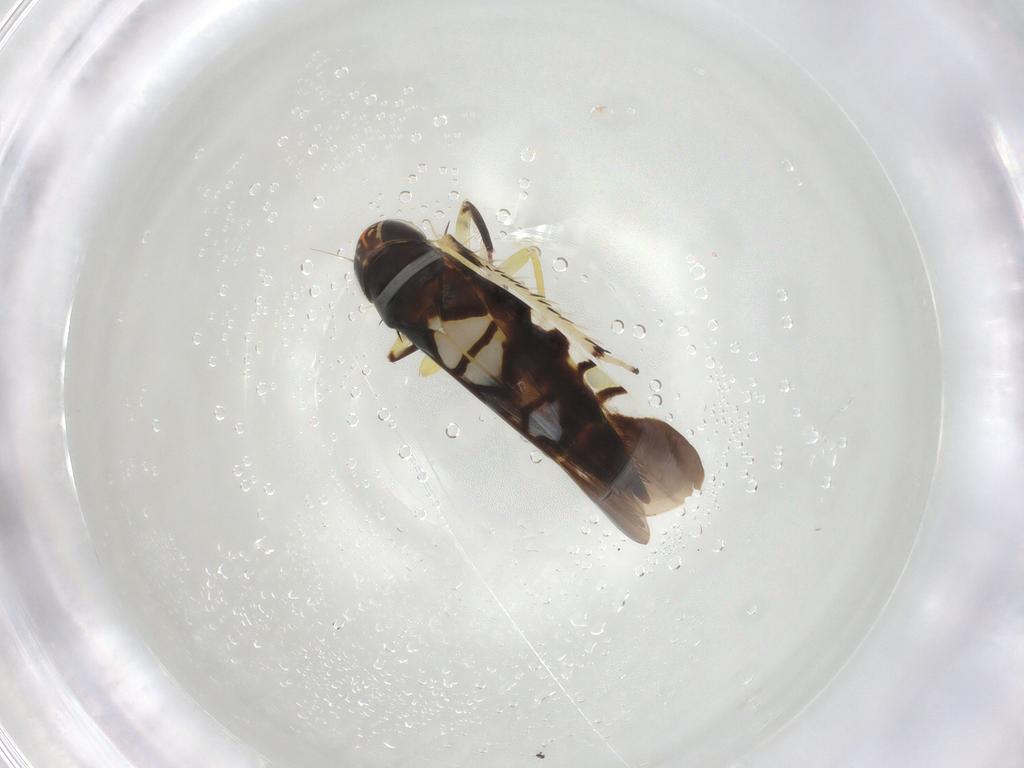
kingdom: Animalia
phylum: Arthropoda
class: Insecta
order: Hemiptera
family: Cicadellidae
